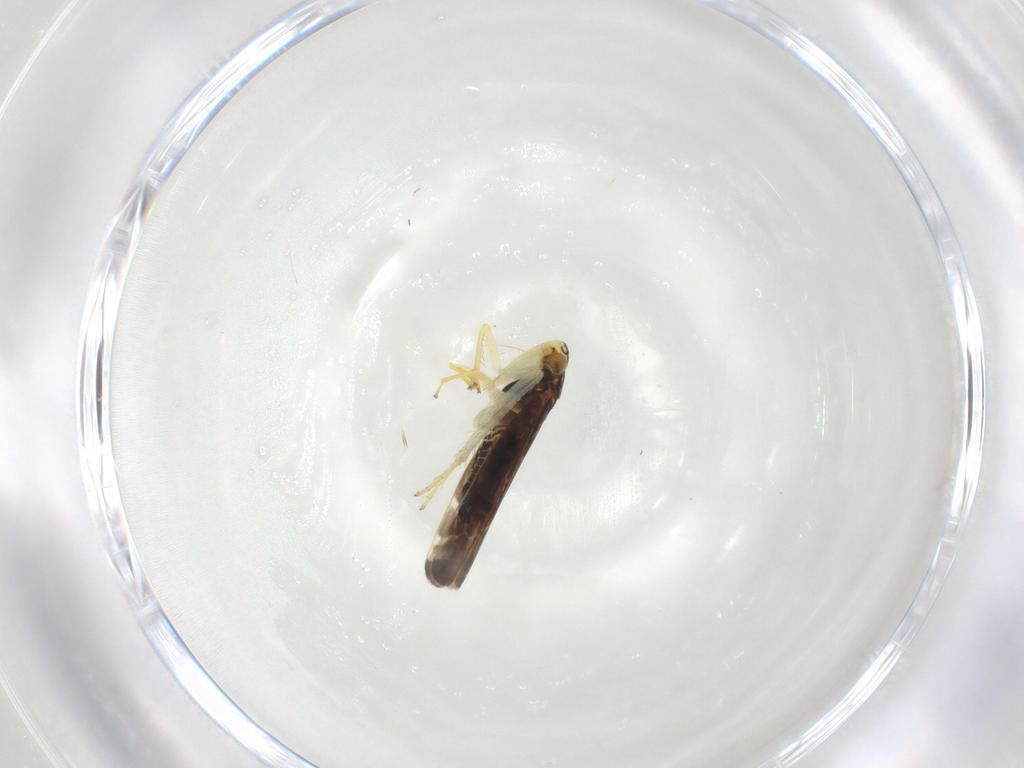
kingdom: Animalia
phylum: Arthropoda
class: Insecta
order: Hemiptera
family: Cicadellidae
